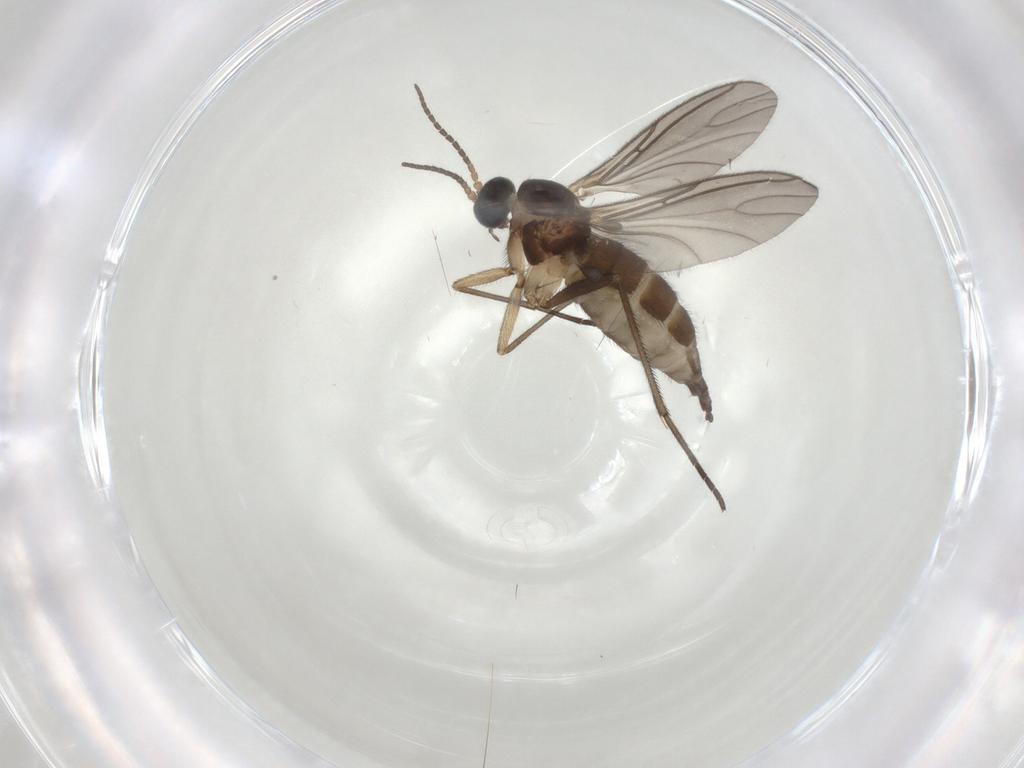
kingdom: Animalia
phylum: Arthropoda
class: Insecta
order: Diptera
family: Sciaridae
